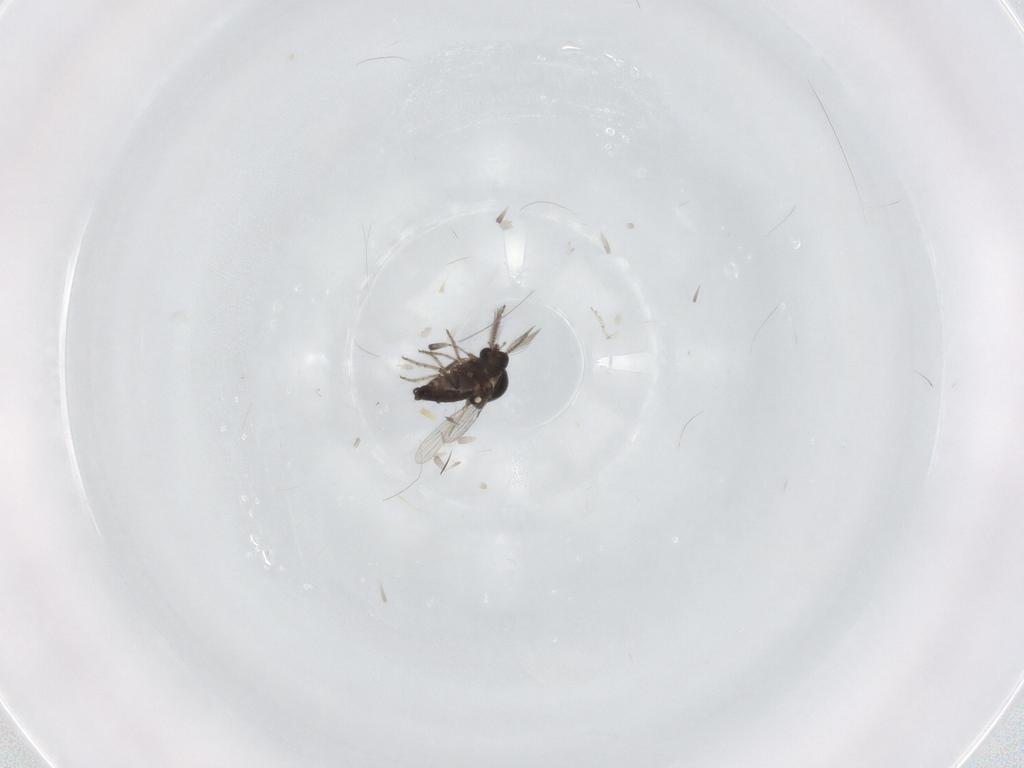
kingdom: Animalia
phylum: Arthropoda
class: Insecta
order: Diptera
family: Ceratopogonidae
